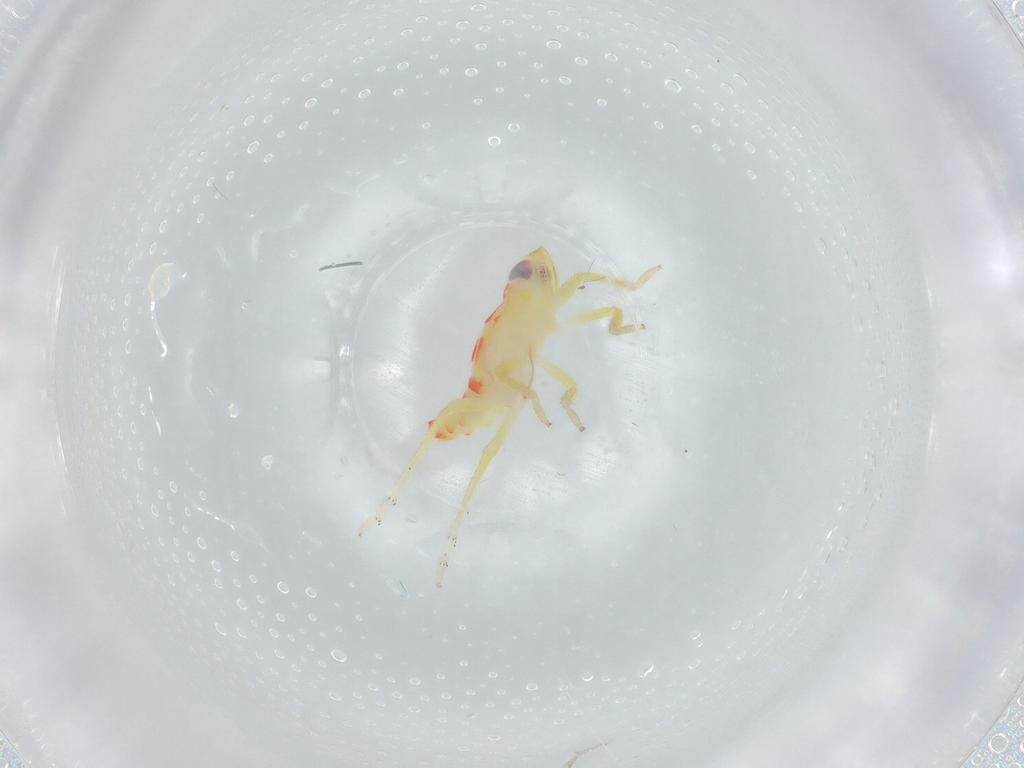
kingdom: Animalia
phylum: Arthropoda
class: Insecta
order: Hemiptera
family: Tropiduchidae
